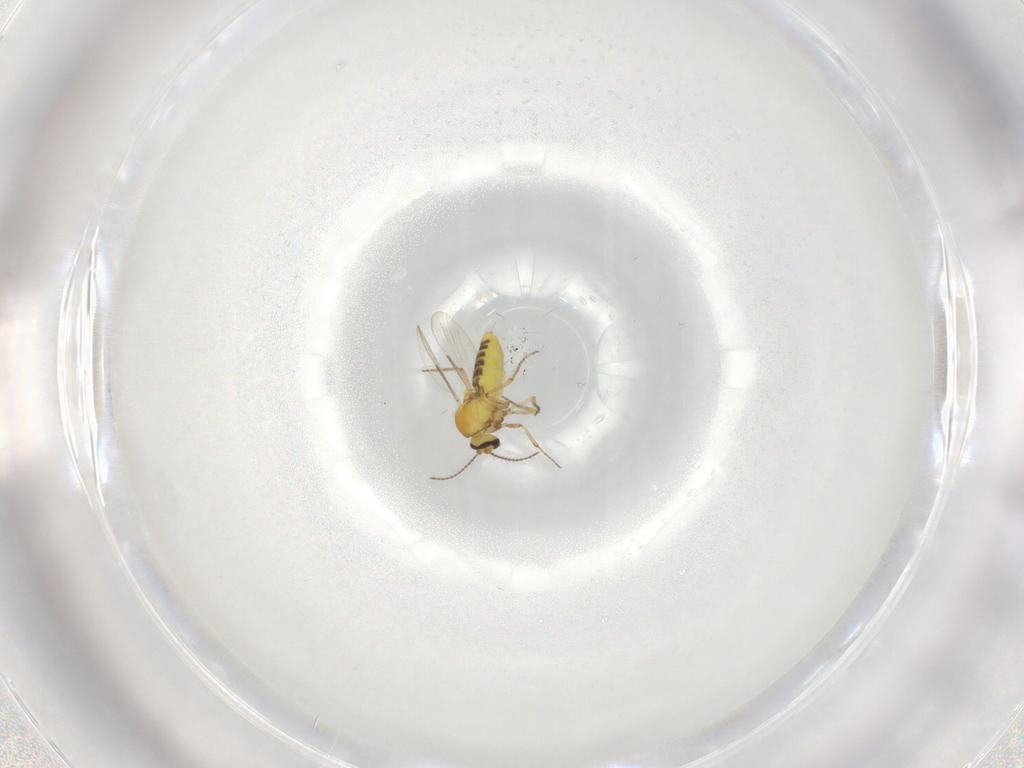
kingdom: Animalia
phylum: Arthropoda
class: Insecta
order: Diptera
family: Ceratopogonidae
